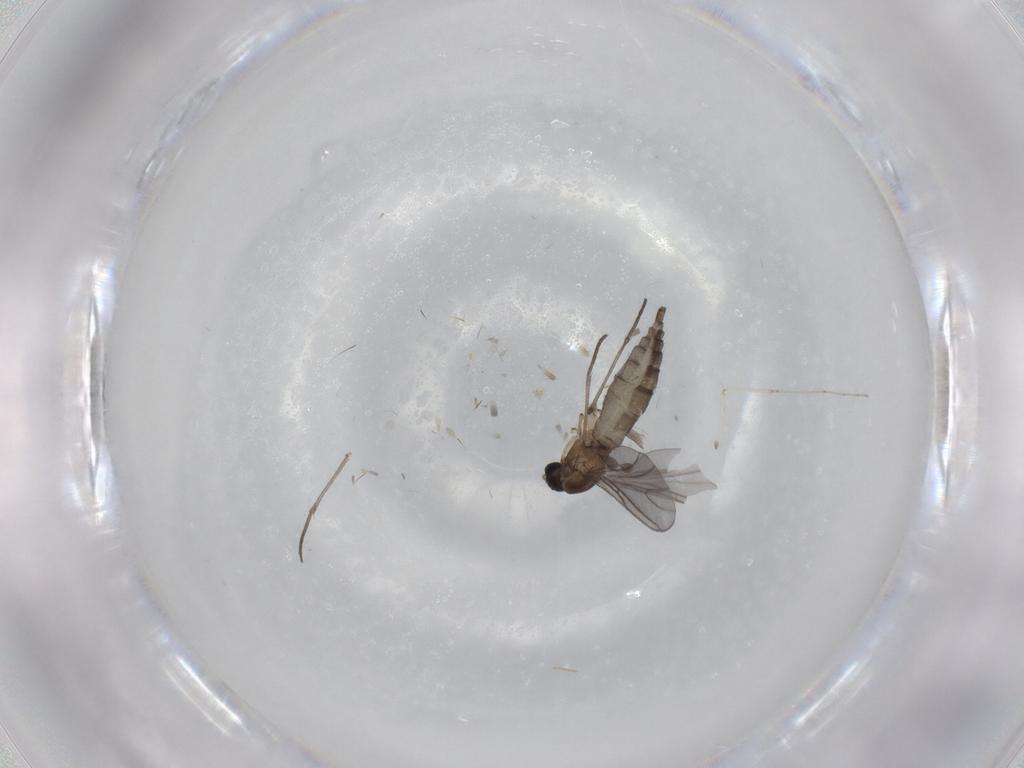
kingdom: Animalia
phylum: Arthropoda
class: Insecta
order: Diptera
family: Sciaridae
